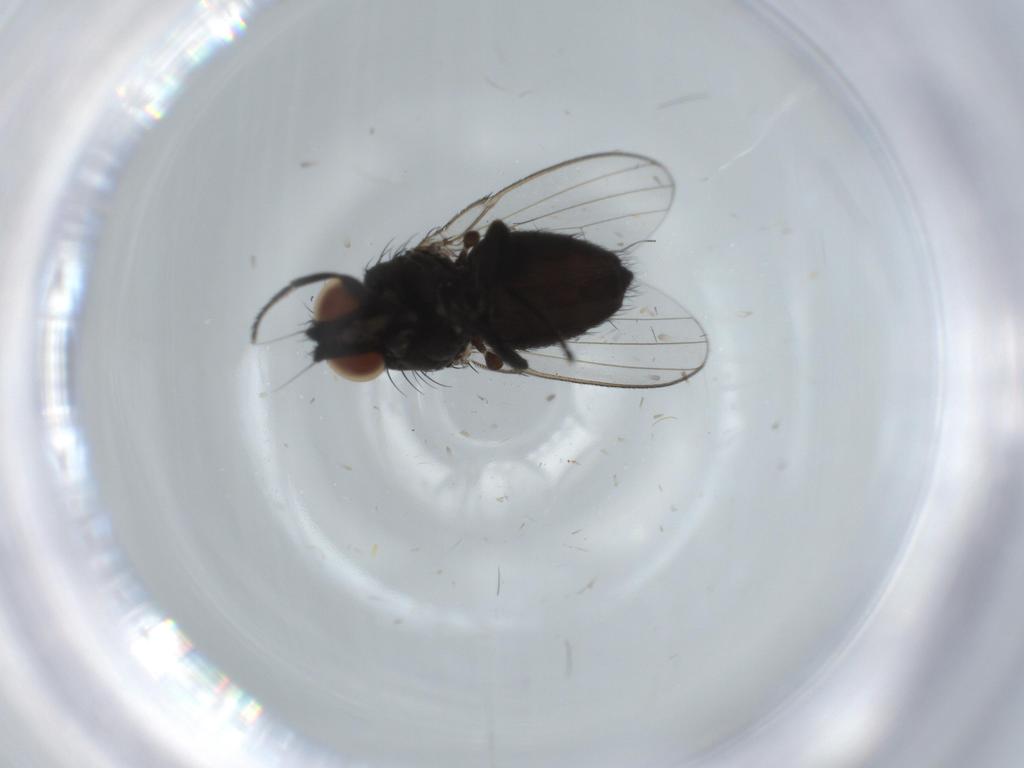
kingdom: Animalia
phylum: Arthropoda
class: Insecta
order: Diptera
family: Milichiidae
